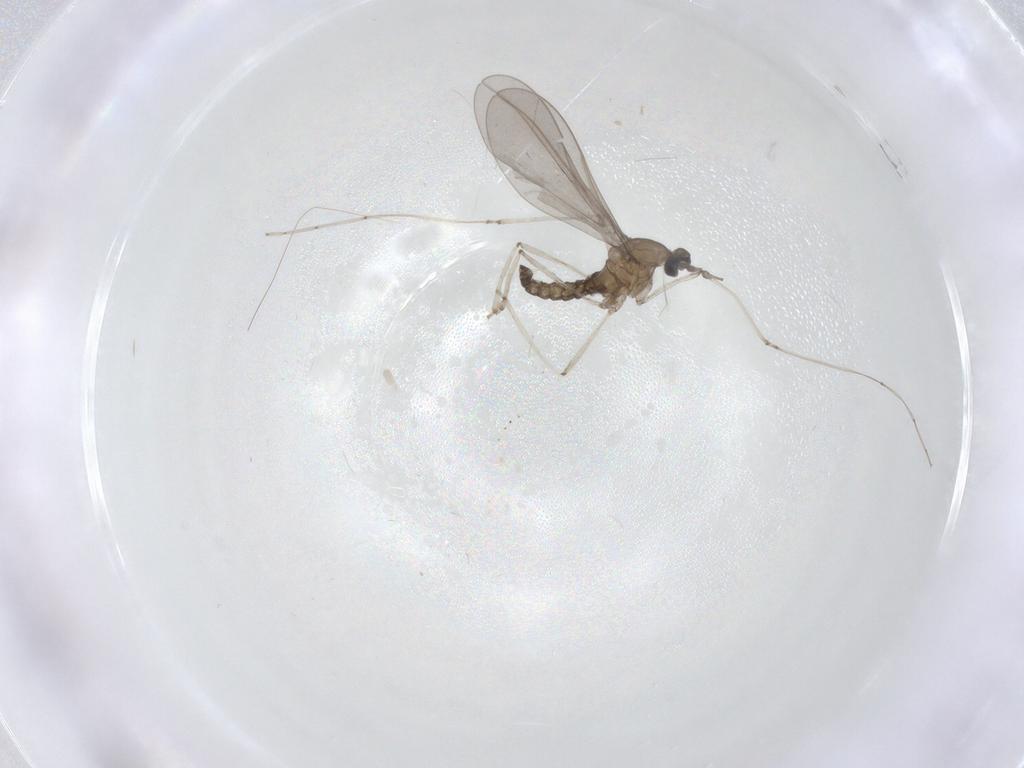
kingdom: Animalia
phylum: Arthropoda
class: Insecta
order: Diptera
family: Cecidomyiidae
